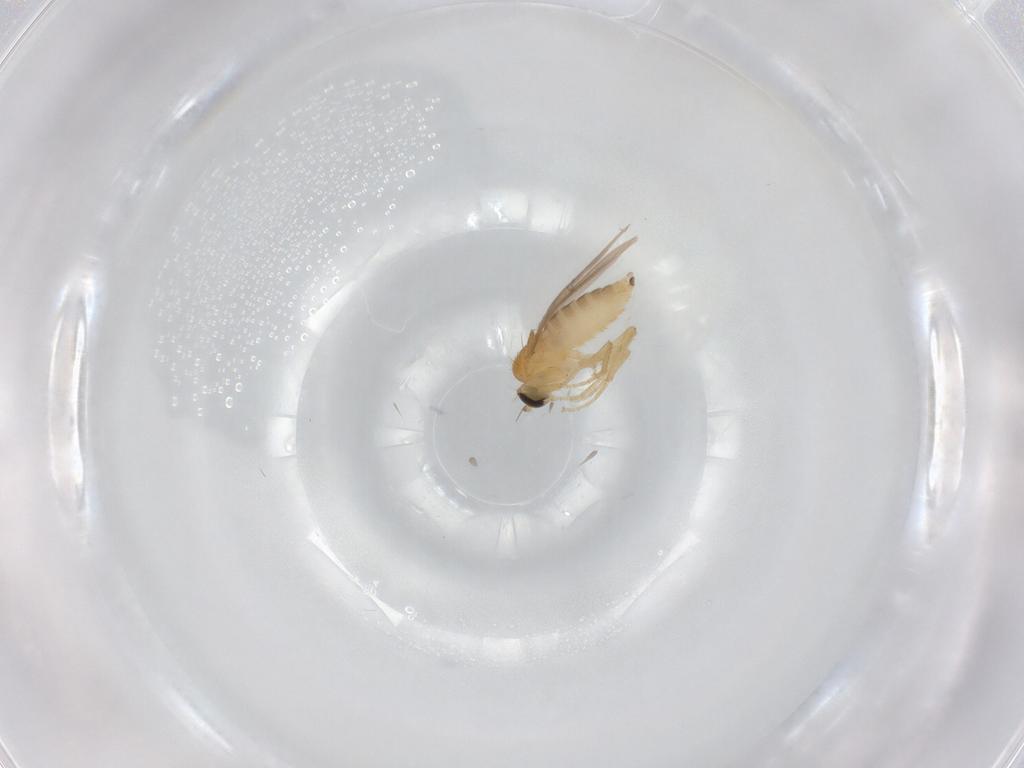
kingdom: Animalia
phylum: Arthropoda
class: Insecta
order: Diptera
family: Hybotidae
